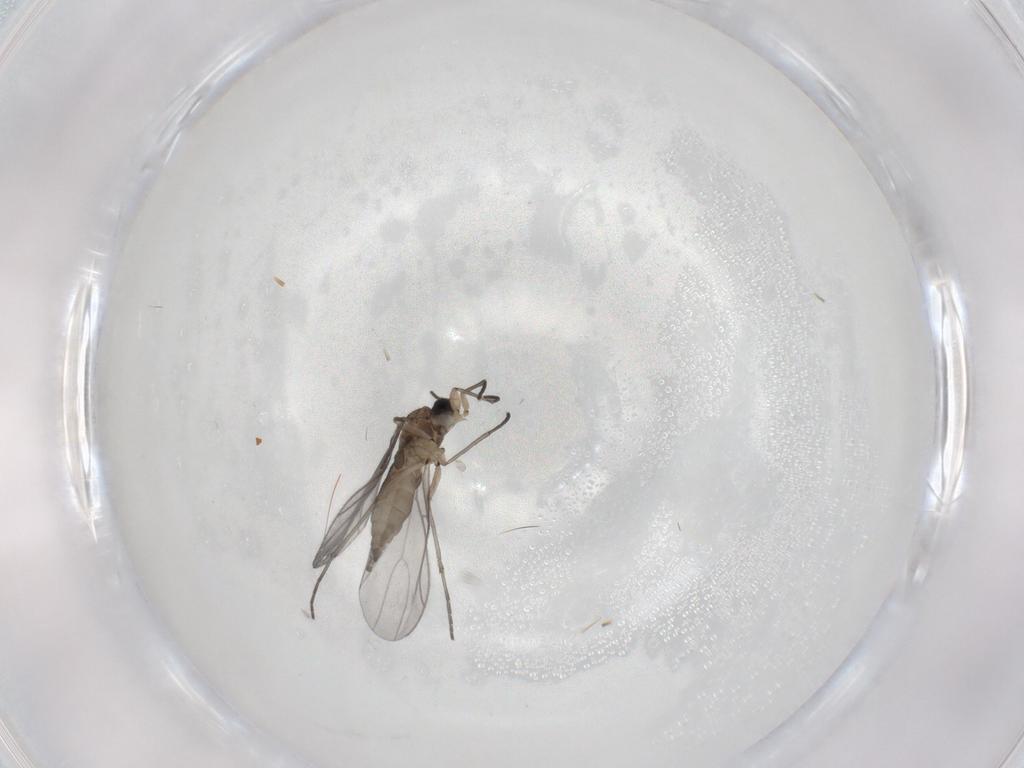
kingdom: Animalia
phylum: Arthropoda
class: Insecta
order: Diptera
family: Sciaridae
